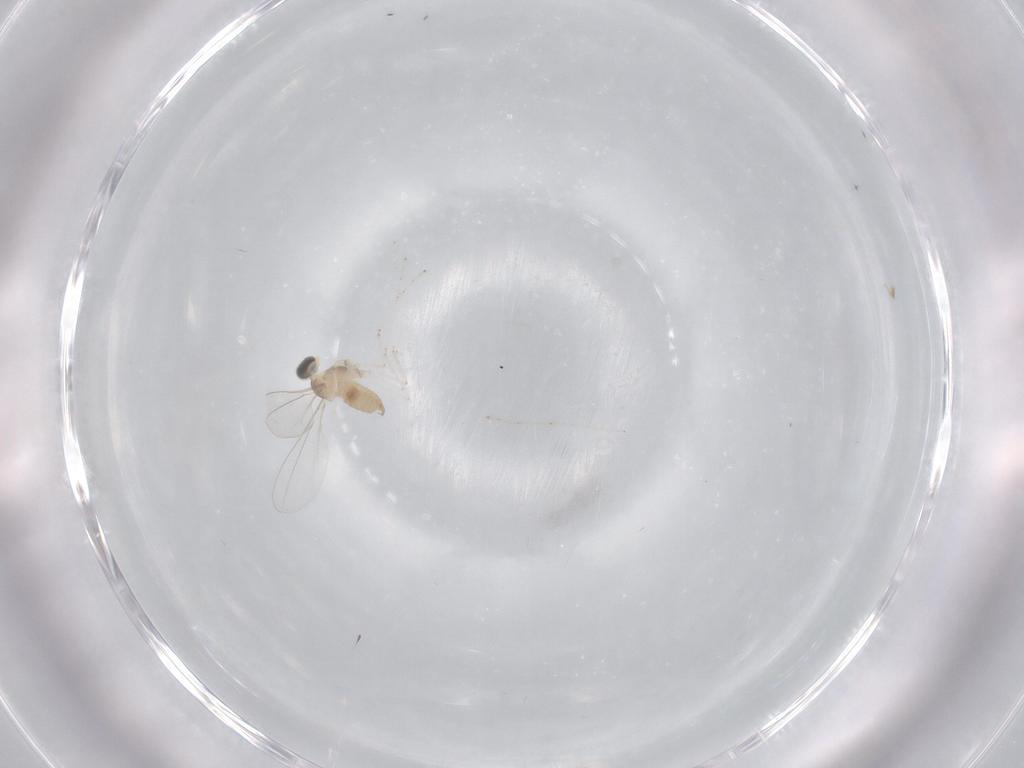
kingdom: Animalia
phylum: Arthropoda
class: Insecta
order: Diptera
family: Cecidomyiidae
